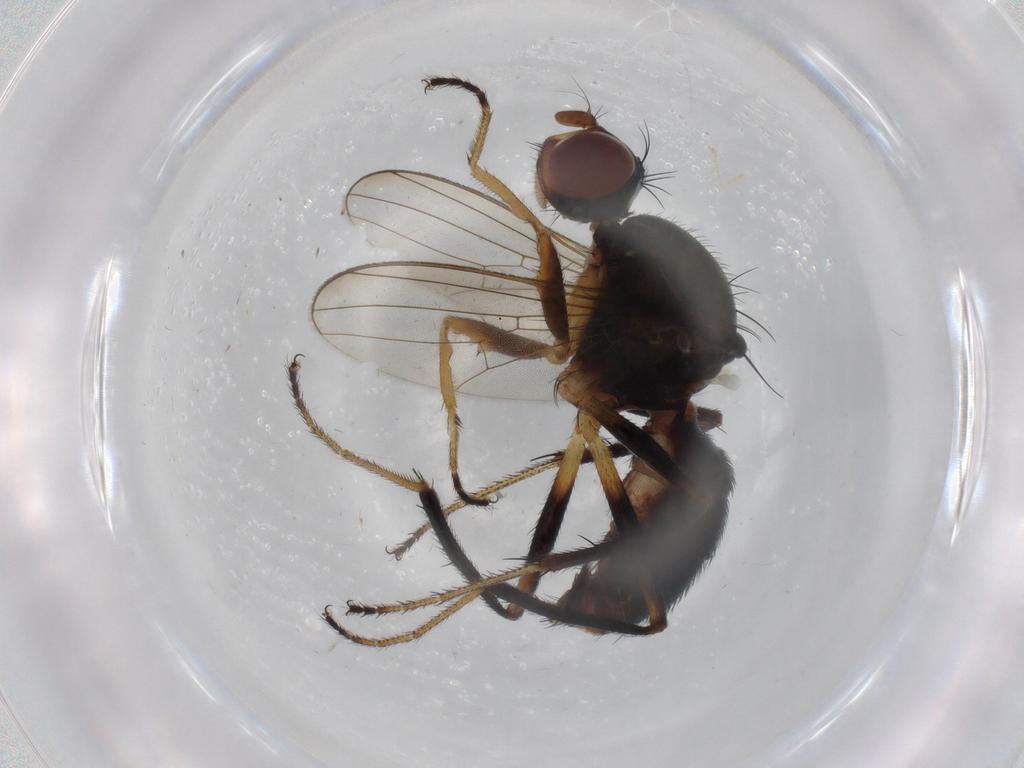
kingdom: Animalia
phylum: Arthropoda
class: Insecta
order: Diptera
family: Sepsidae
